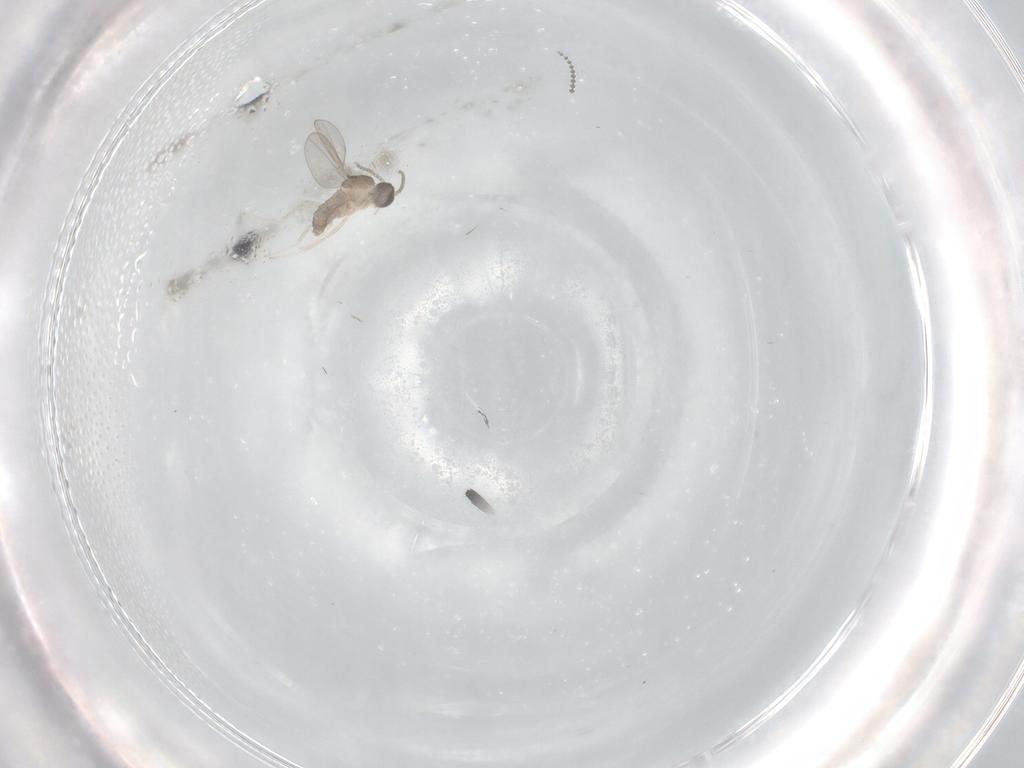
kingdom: Animalia
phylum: Arthropoda
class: Insecta
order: Diptera
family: Cecidomyiidae
